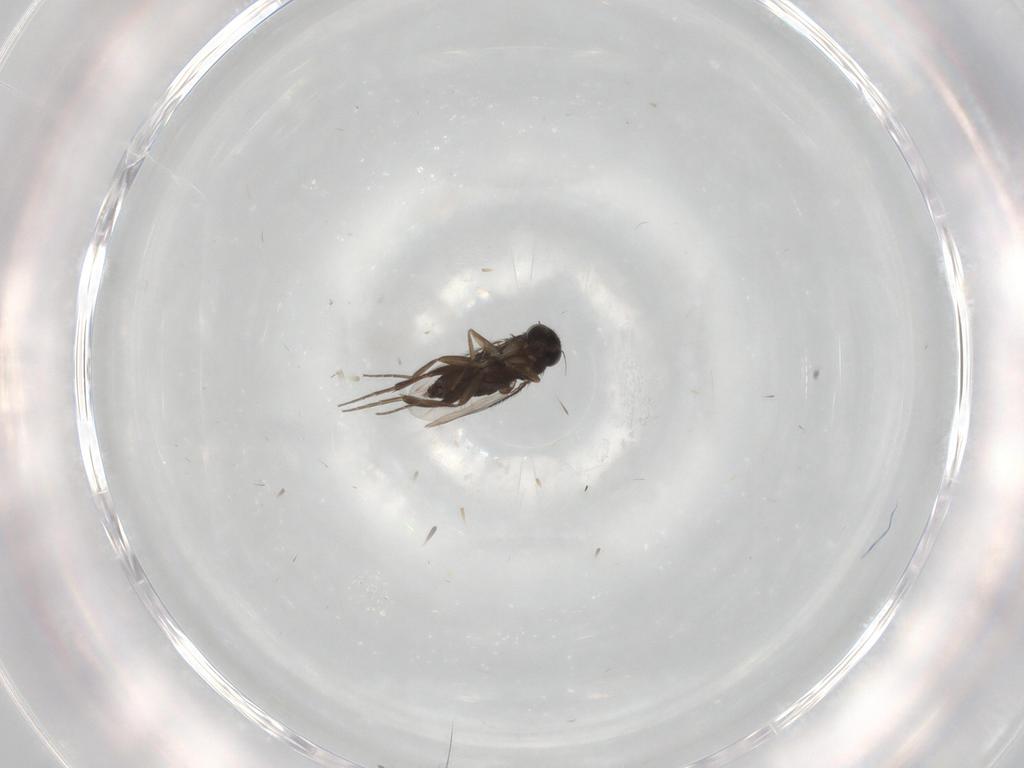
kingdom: Animalia
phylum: Arthropoda
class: Insecta
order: Diptera
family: Phoridae
